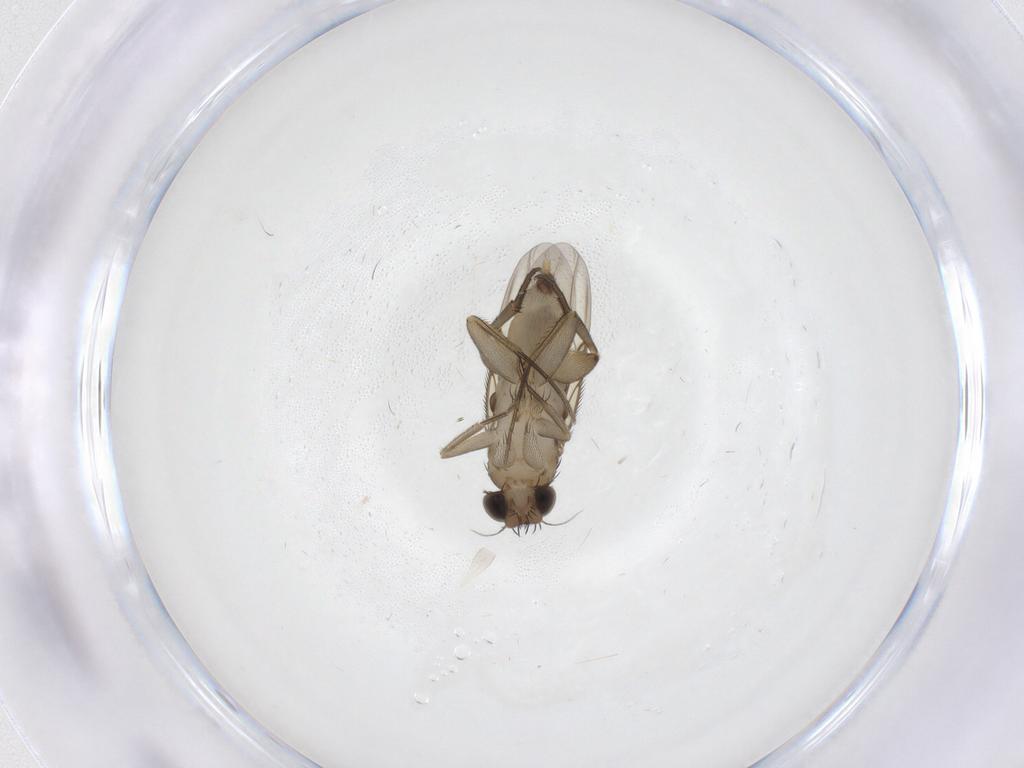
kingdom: Animalia
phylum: Arthropoda
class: Insecta
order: Diptera
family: Phoridae
